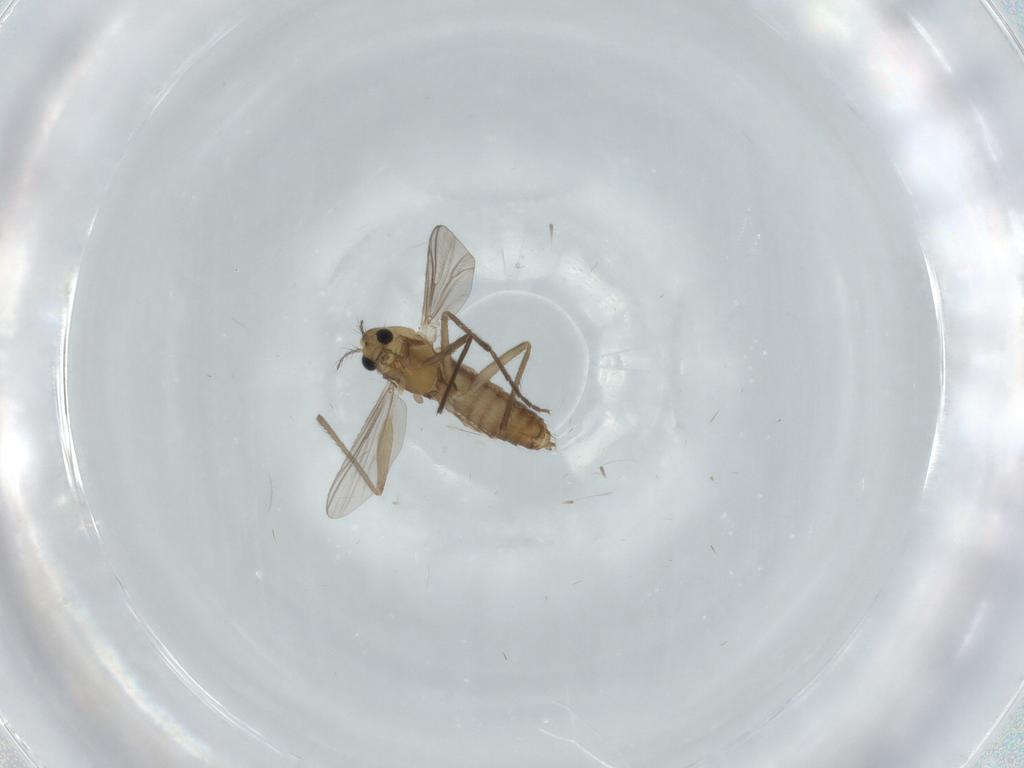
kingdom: Animalia
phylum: Arthropoda
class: Insecta
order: Diptera
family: Chironomidae
